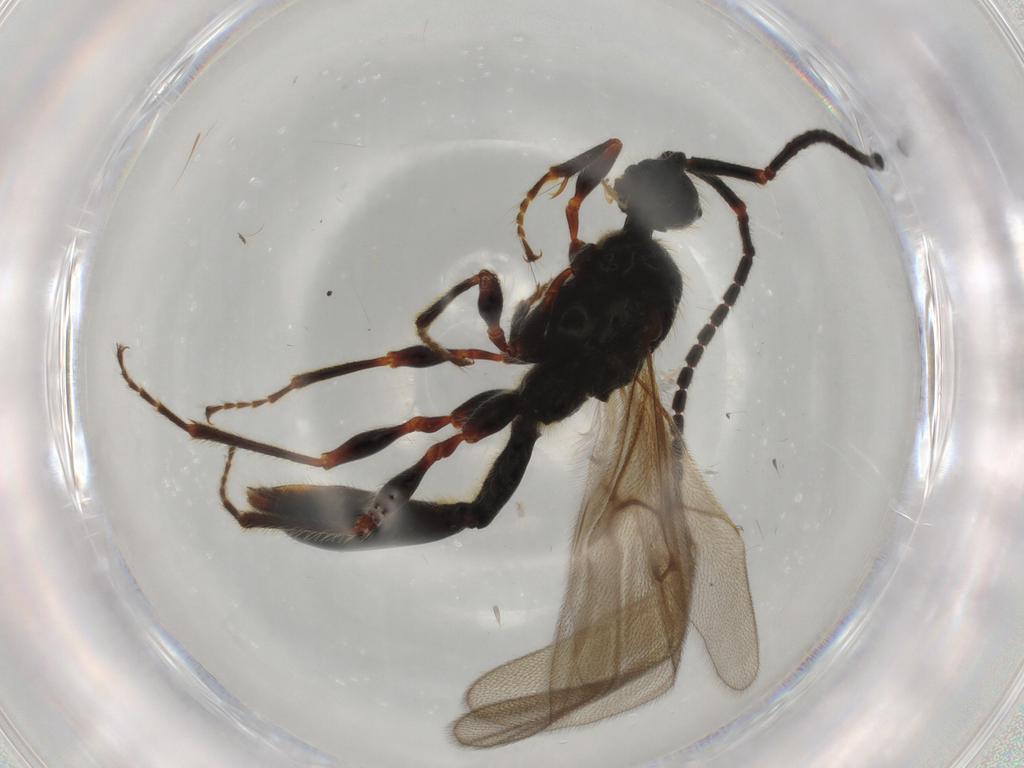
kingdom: Animalia
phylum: Arthropoda
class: Insecta
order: Hymenoptera
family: Diapriidae
